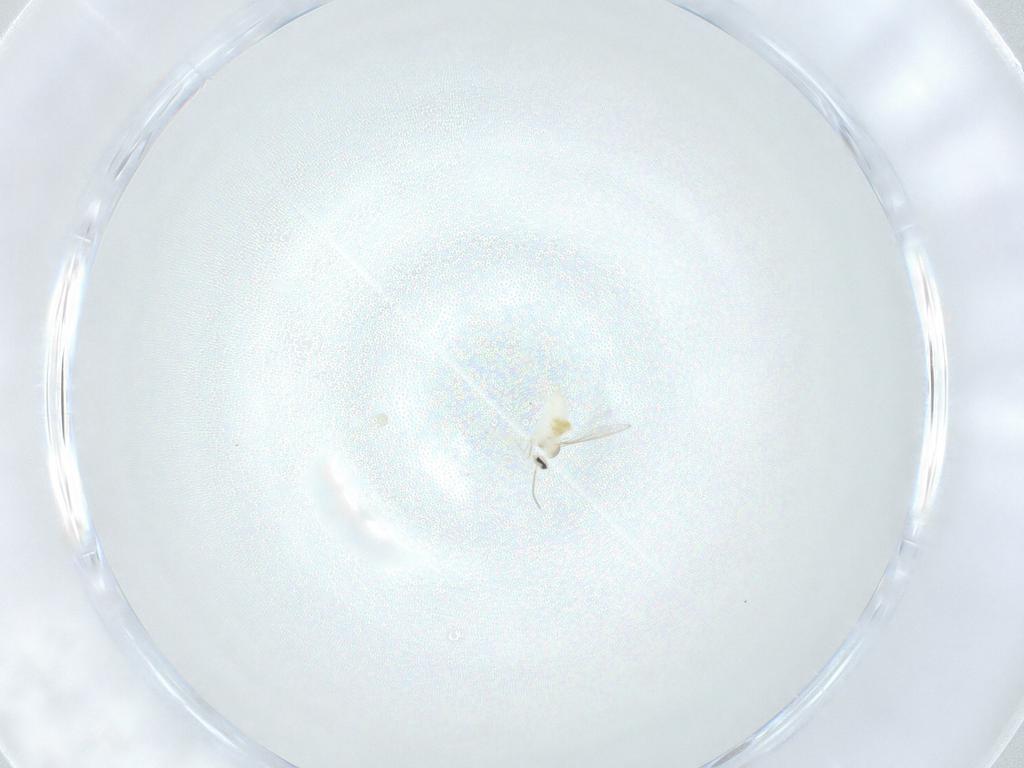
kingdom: Animalia
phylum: Arthropoda
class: Insecta
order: Diptera
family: Cecidomyiidae
